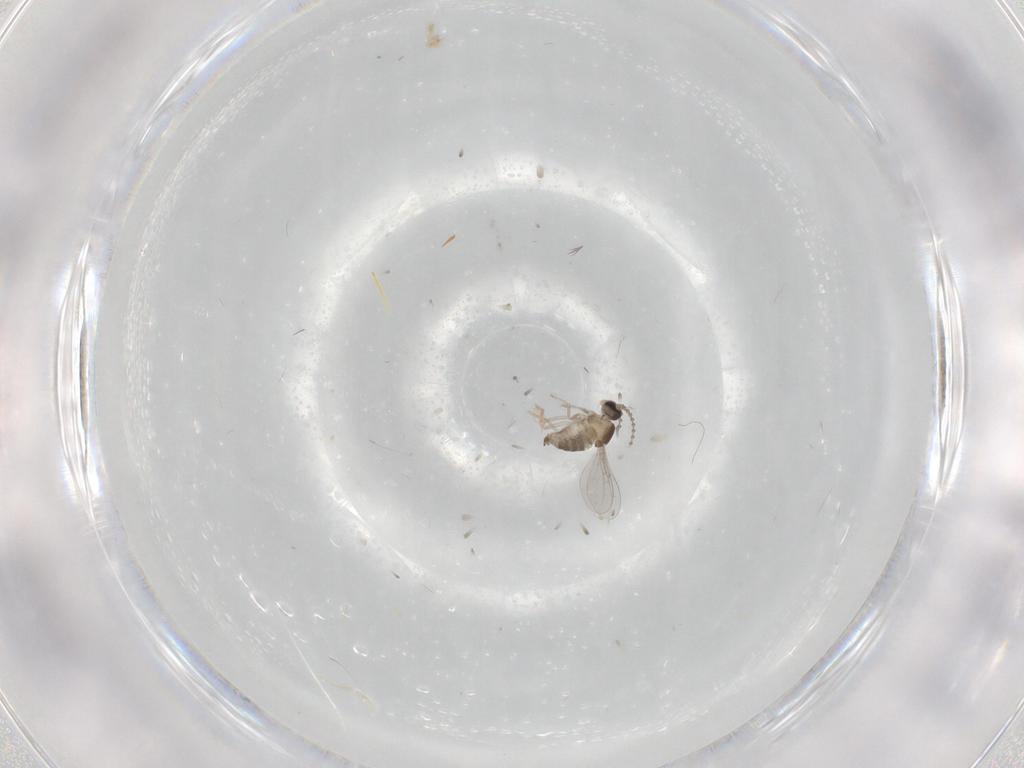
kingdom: Animalia
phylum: Arthropoda
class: Insecta
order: Diptera
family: Cecidomyiidae
